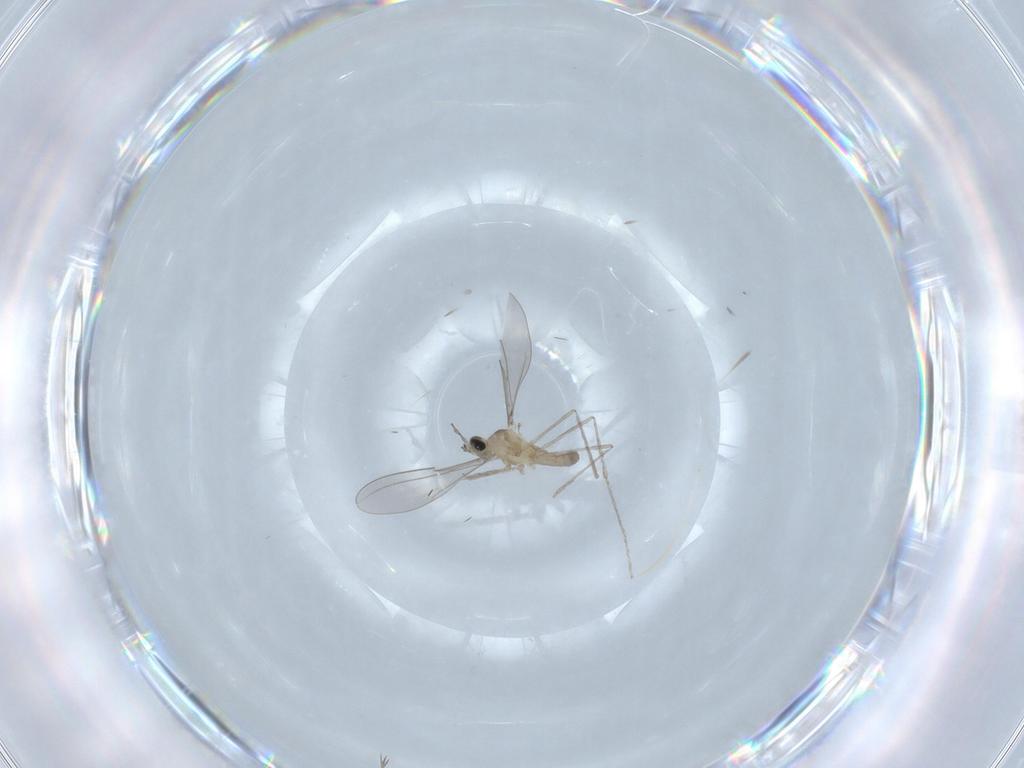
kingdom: Animalia
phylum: Arthropoda
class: Insecta
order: Diptera
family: Cecidomyiidae
